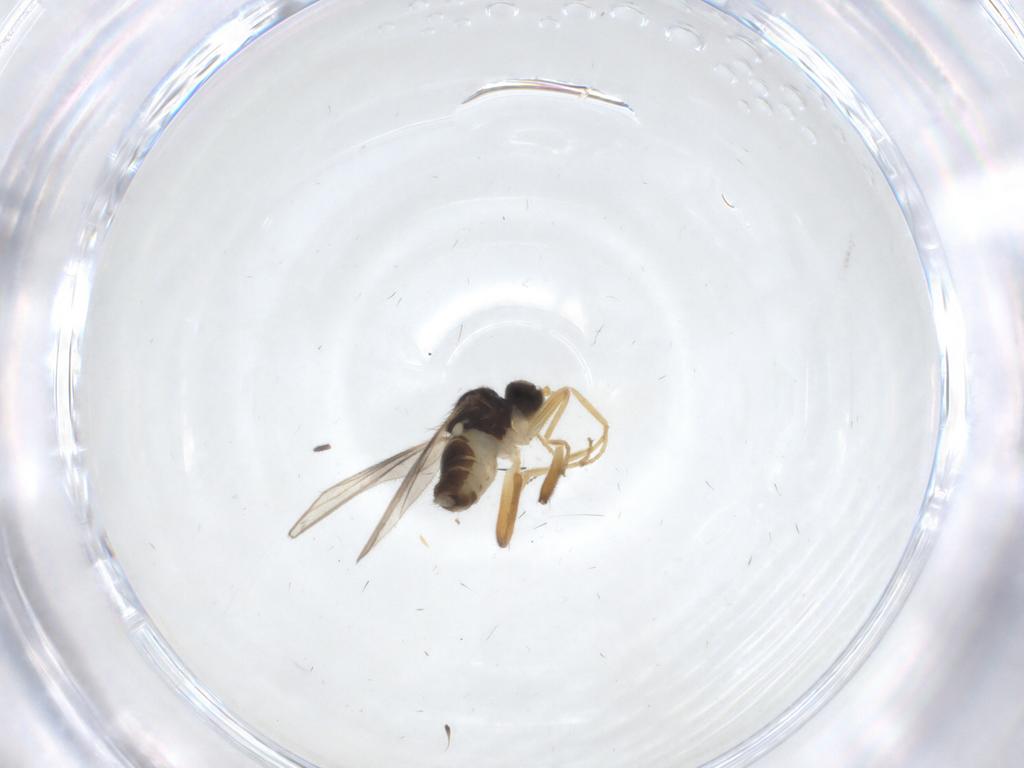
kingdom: Animalia
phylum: Arthropoda
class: Insecta
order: Diptera
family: Hybotidae
